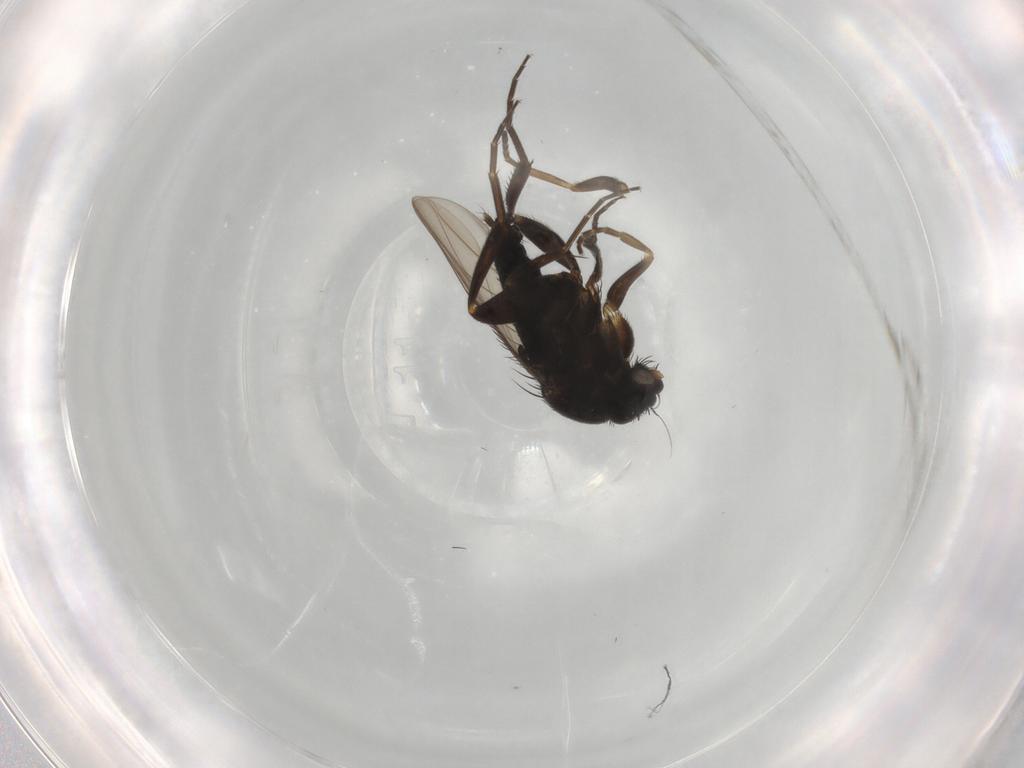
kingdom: Animalia
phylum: Arthropoda
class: Insecta
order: Diptera
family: Phoridae
